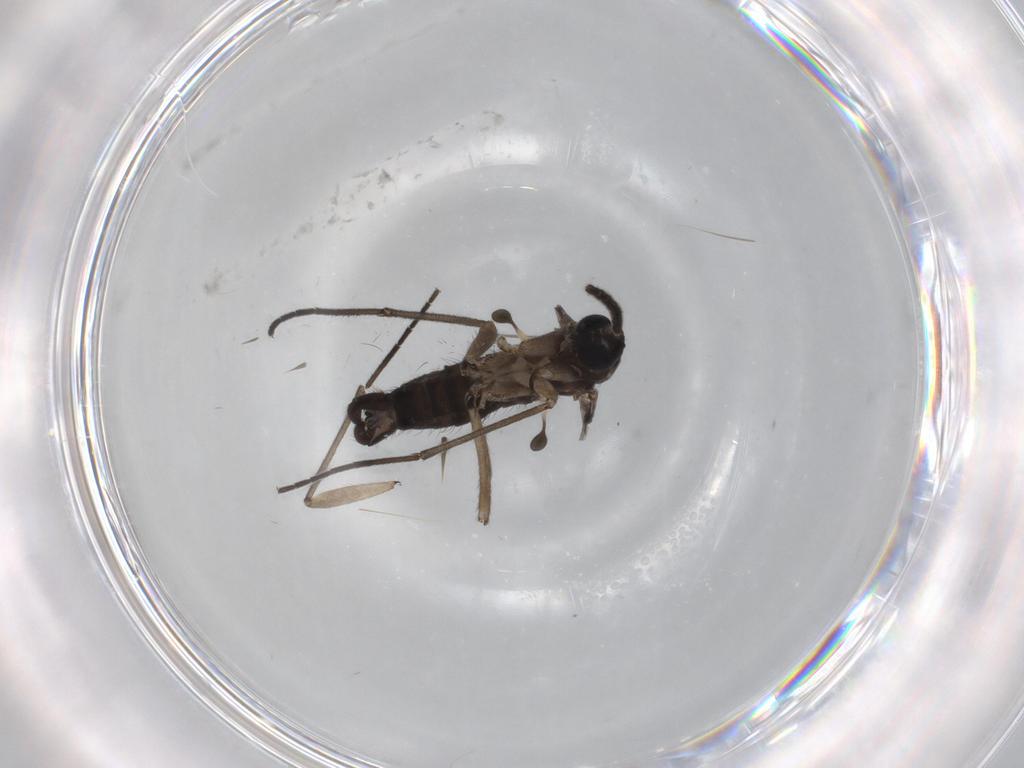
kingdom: Animalia
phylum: Arthropoda
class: Insecta
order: Diptera
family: Sciaridae
